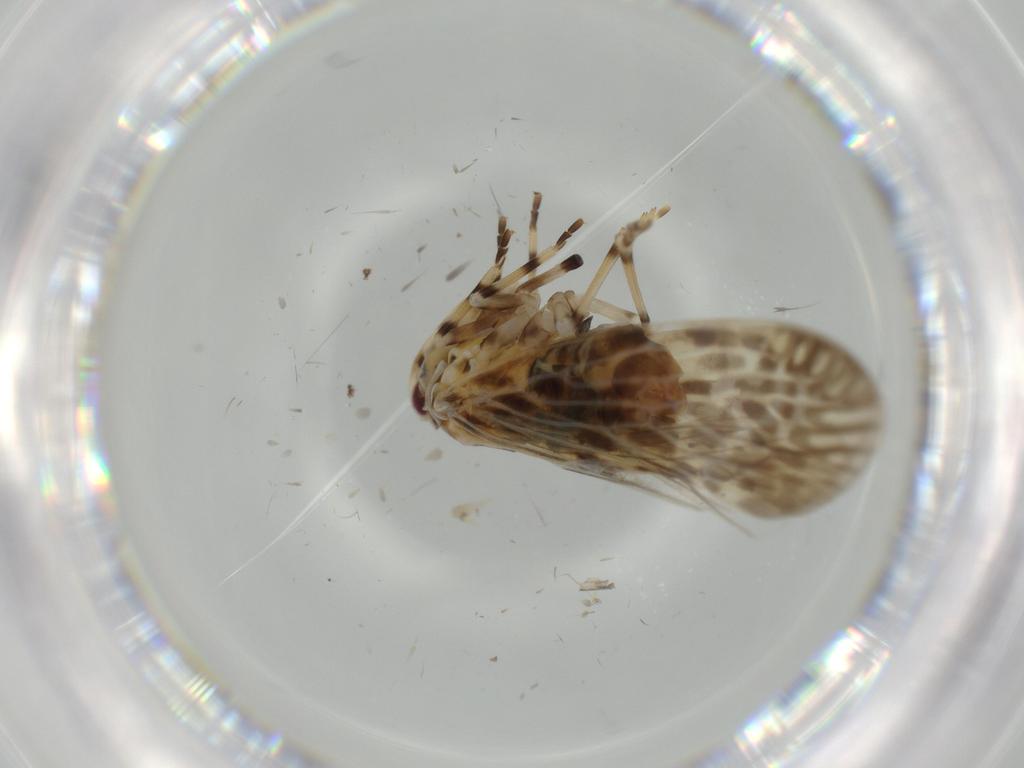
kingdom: Animalia
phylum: Arthropoda
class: Insecta
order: Hemiptera
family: Derbidae
